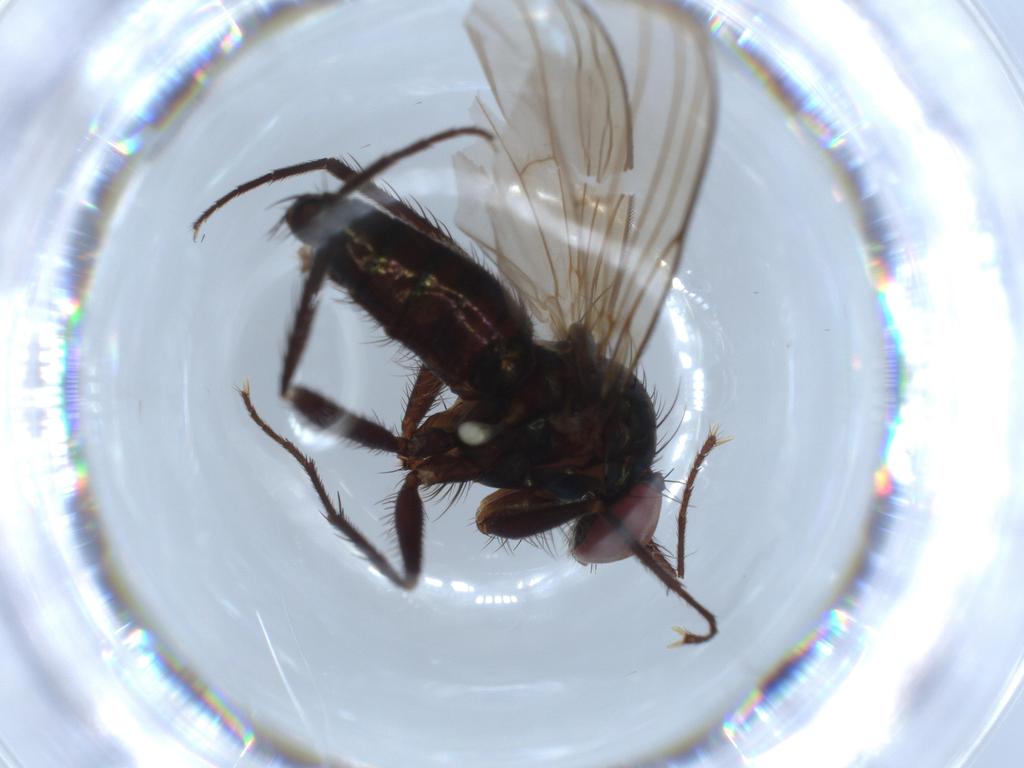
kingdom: Animalia
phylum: Arthropoda
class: Insecta
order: Diptera
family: Dolichopodidae
